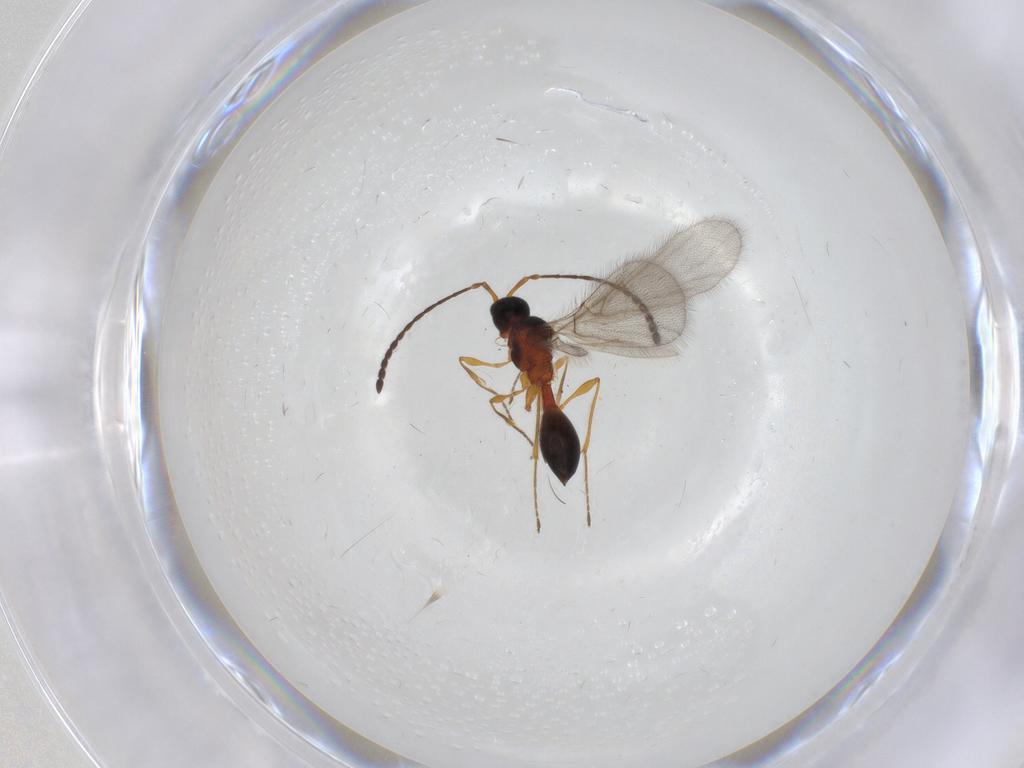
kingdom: Animalia
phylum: Arthropoda
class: Insecta
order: Hymenoptera
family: Diapriidae
